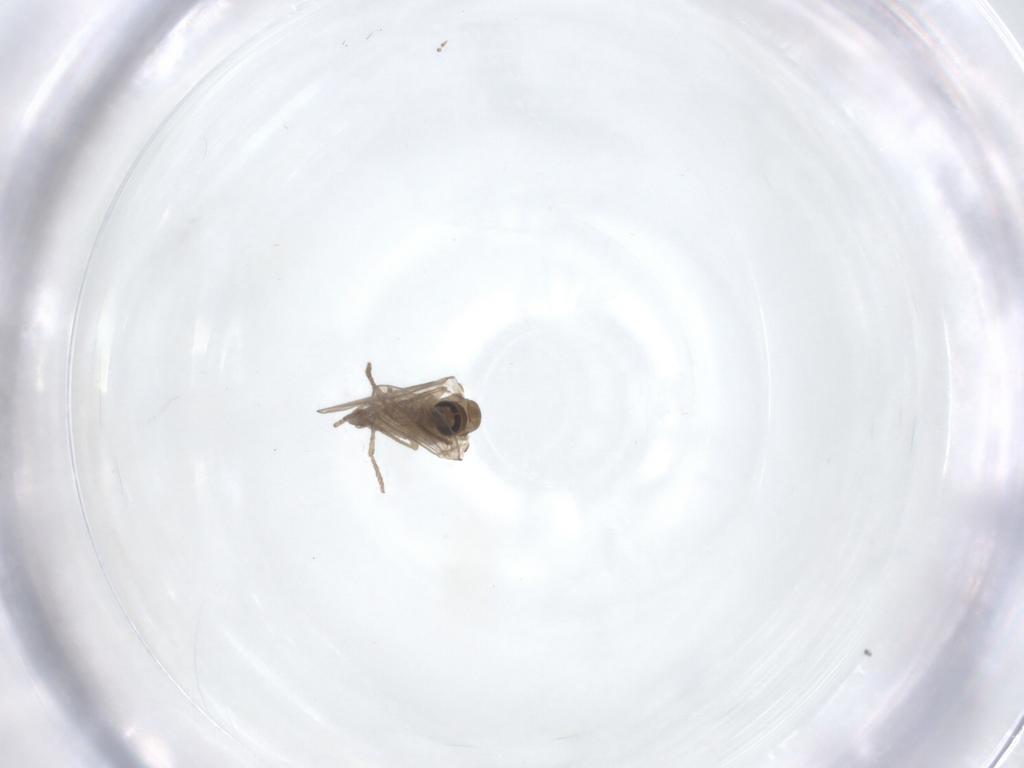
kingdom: Animalia
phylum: Arthropoda
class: Insecta
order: Diptera
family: Psychodidae
